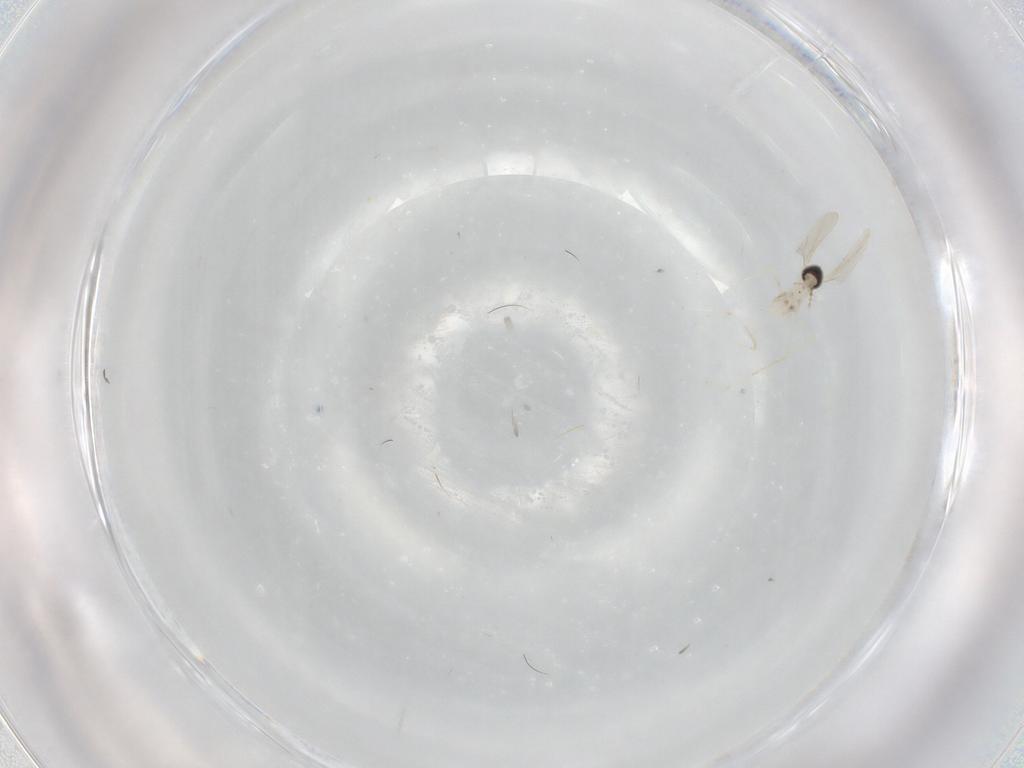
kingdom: Animalia
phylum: Arthropoda
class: Insecta
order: Diptera
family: Cecidomyiidae
